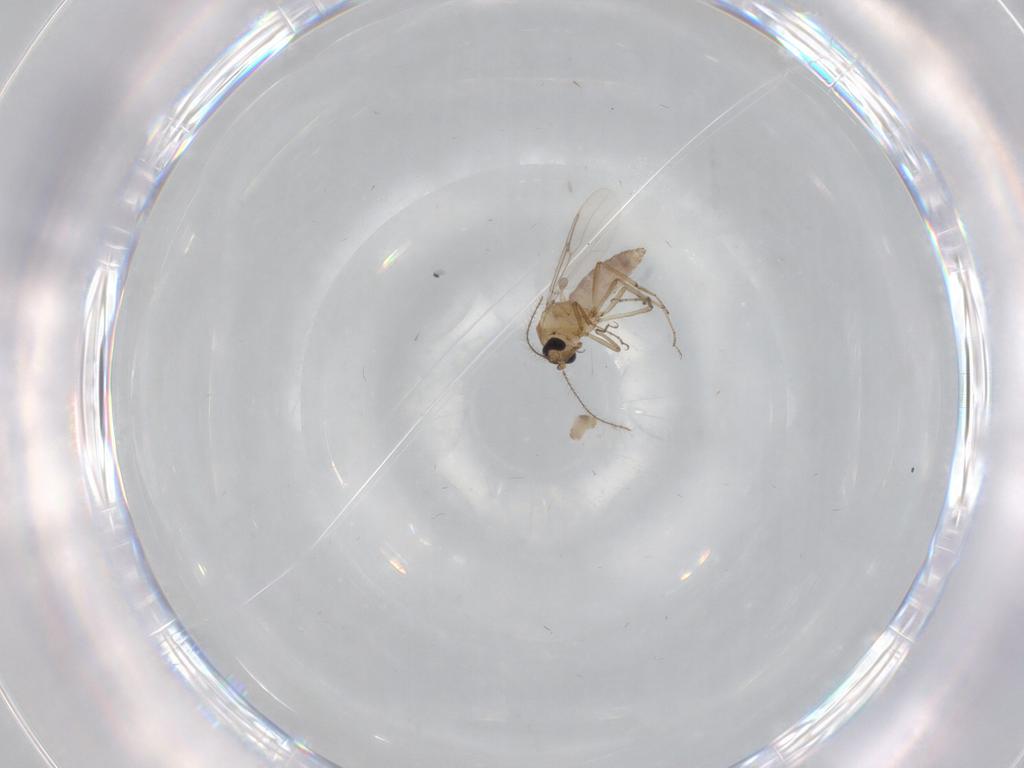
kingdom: Animalia
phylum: Arthropoda
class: Insecta
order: Diptera
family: Ceratopogonidae
